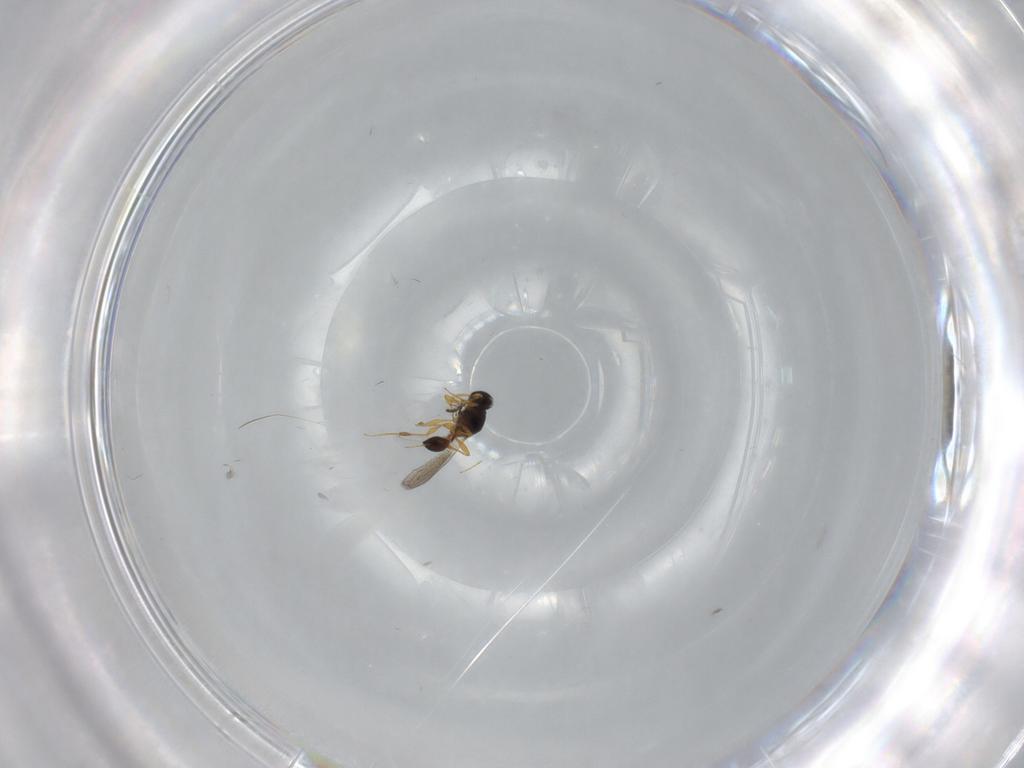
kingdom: Animalia
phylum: Arthropoda
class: Insecta
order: Hymenoptera
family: Platygastridae
